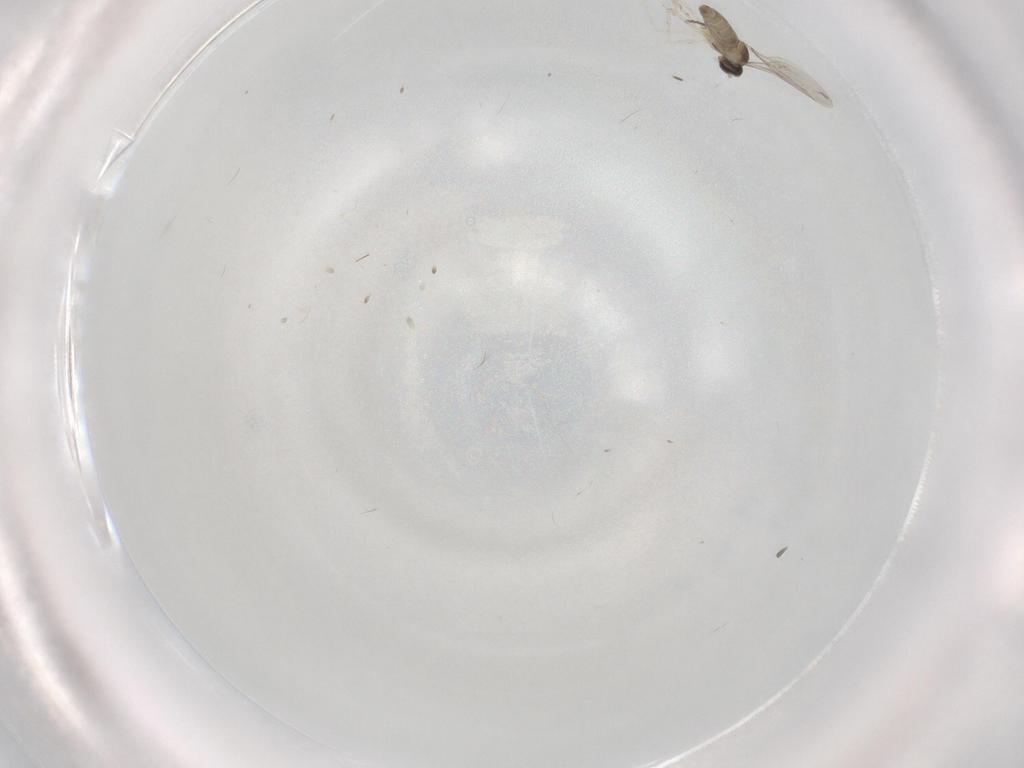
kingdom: Animalia
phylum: Arthropoda
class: Insecta
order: Diptera
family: Cecidomyiidae
